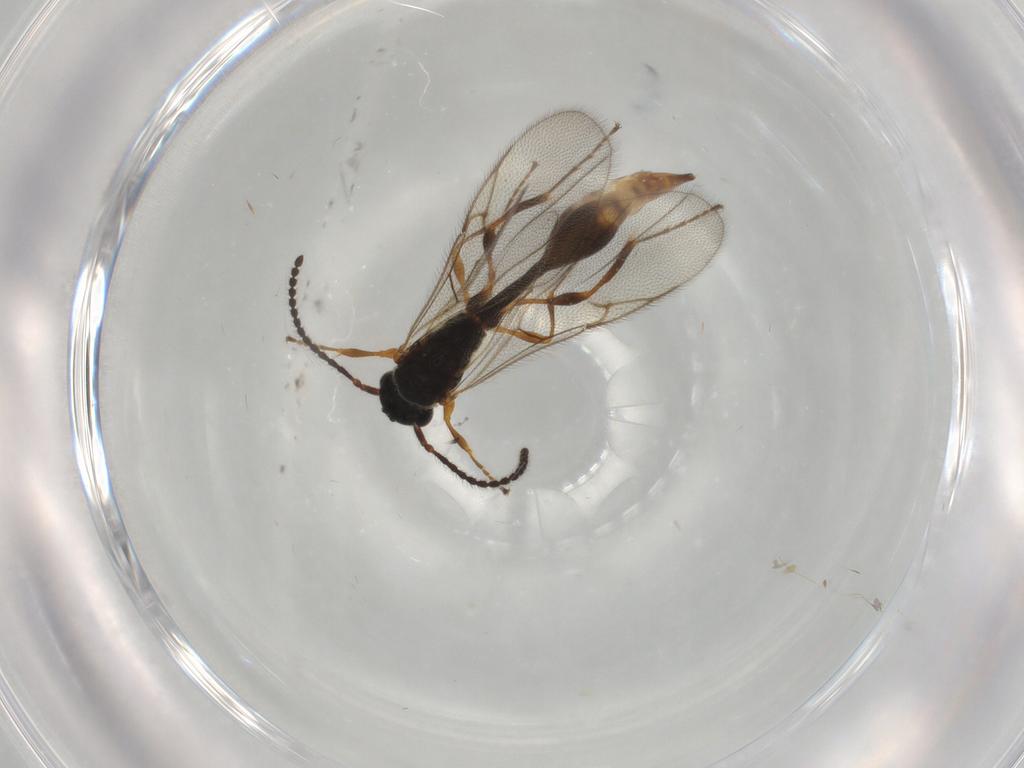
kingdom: Animalia
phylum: Arthropoda
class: Insecta
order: Hymenoptera
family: Diapriidae
